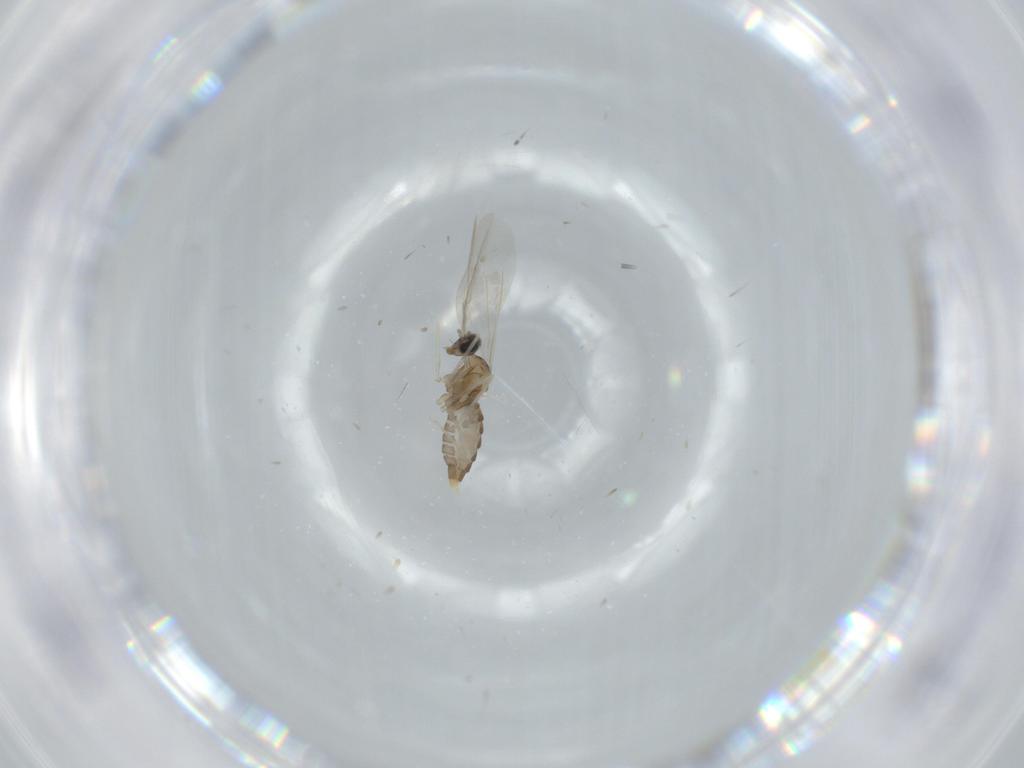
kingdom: Animalia
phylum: Arthropoda
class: Insecta
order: Diptera
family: Cecidomyiidae
